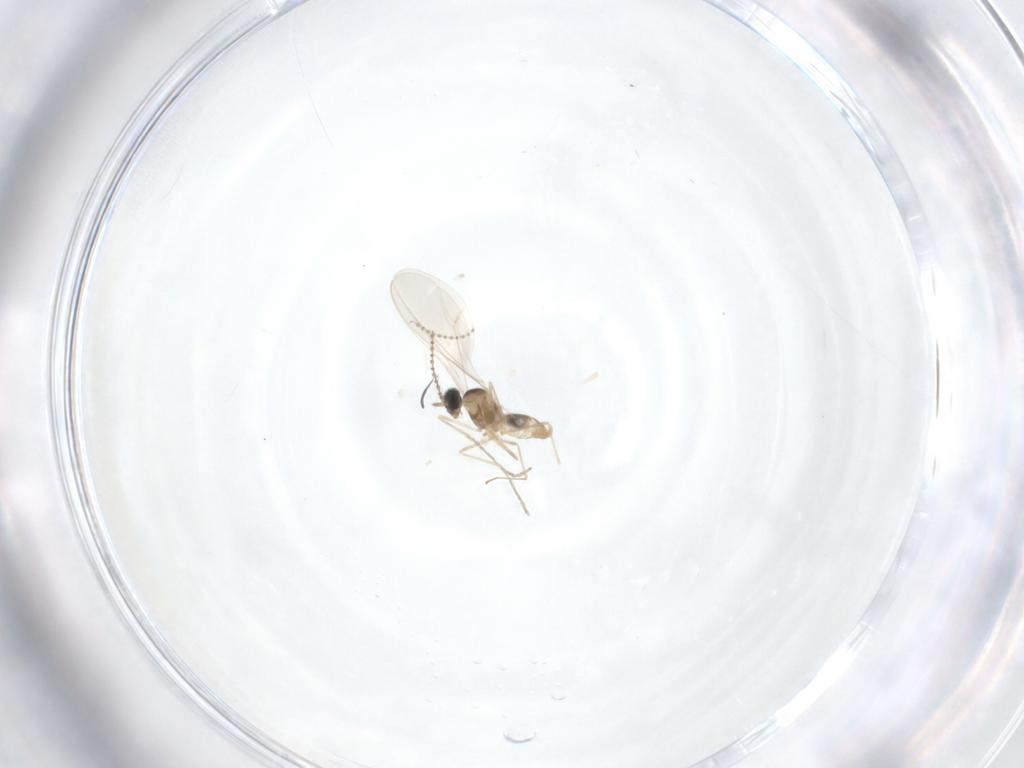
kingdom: Animalia
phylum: Arthropoda
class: Insecta
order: Diptera
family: Cecidomyiidae
